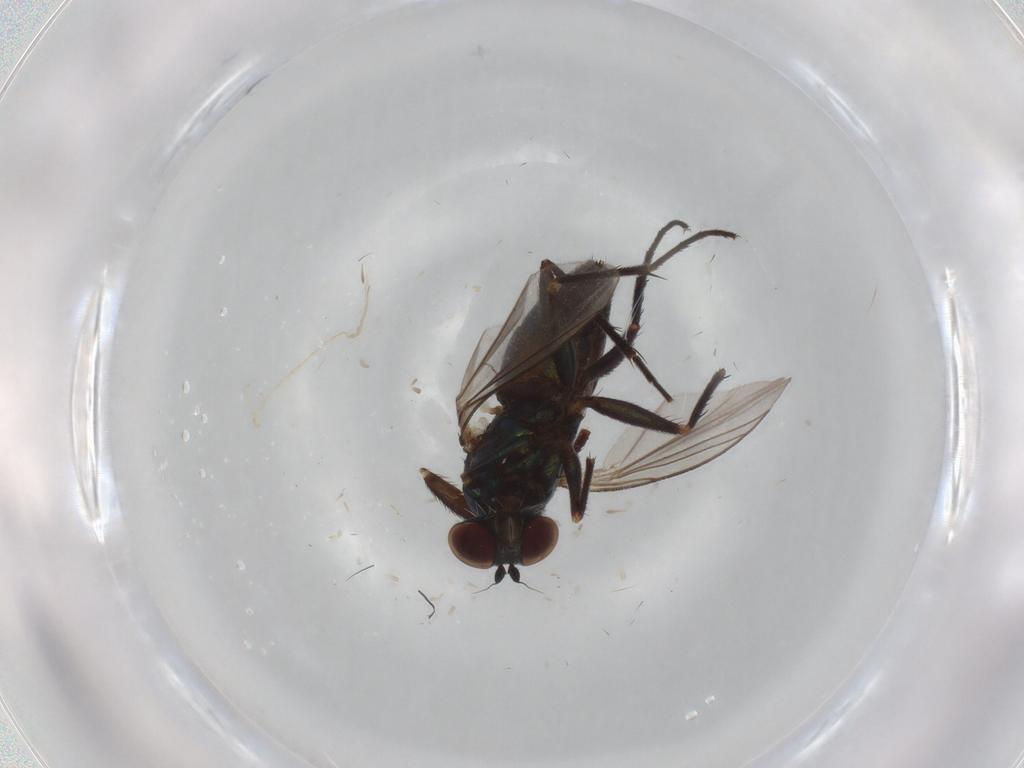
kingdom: Animalia
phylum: Arthropoda
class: Insecta
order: Diptera
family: Dolichopodidae
